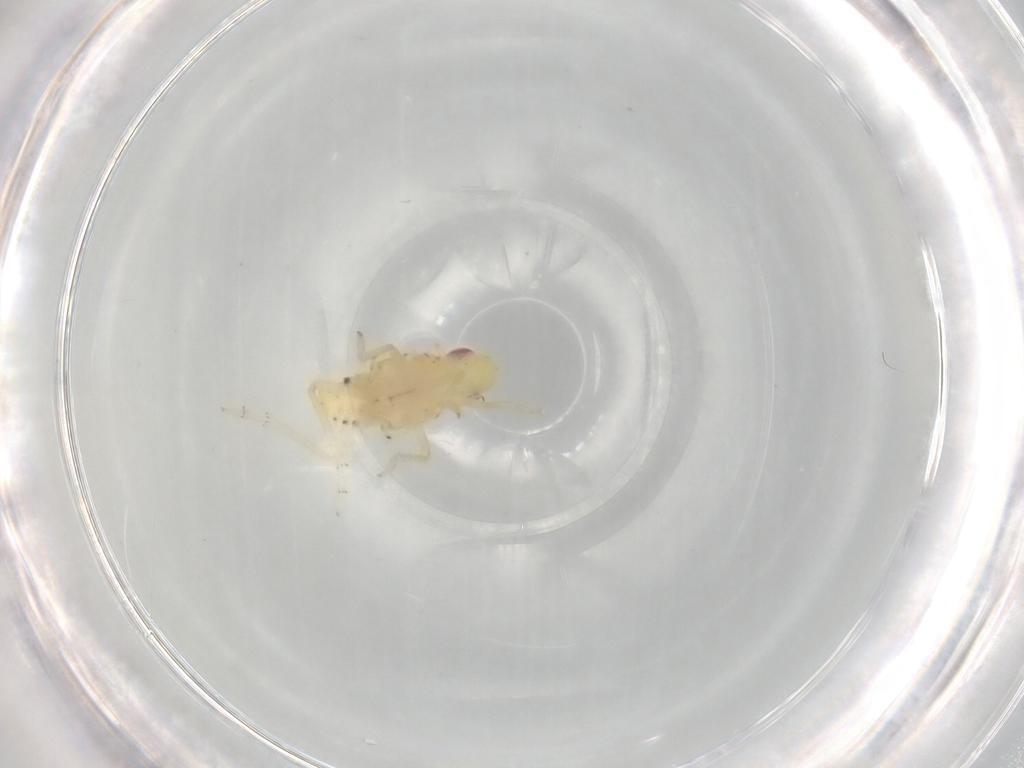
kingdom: Animalia
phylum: Arthropoda
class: Insecta
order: Hemiptera
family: Tropiduchidae
